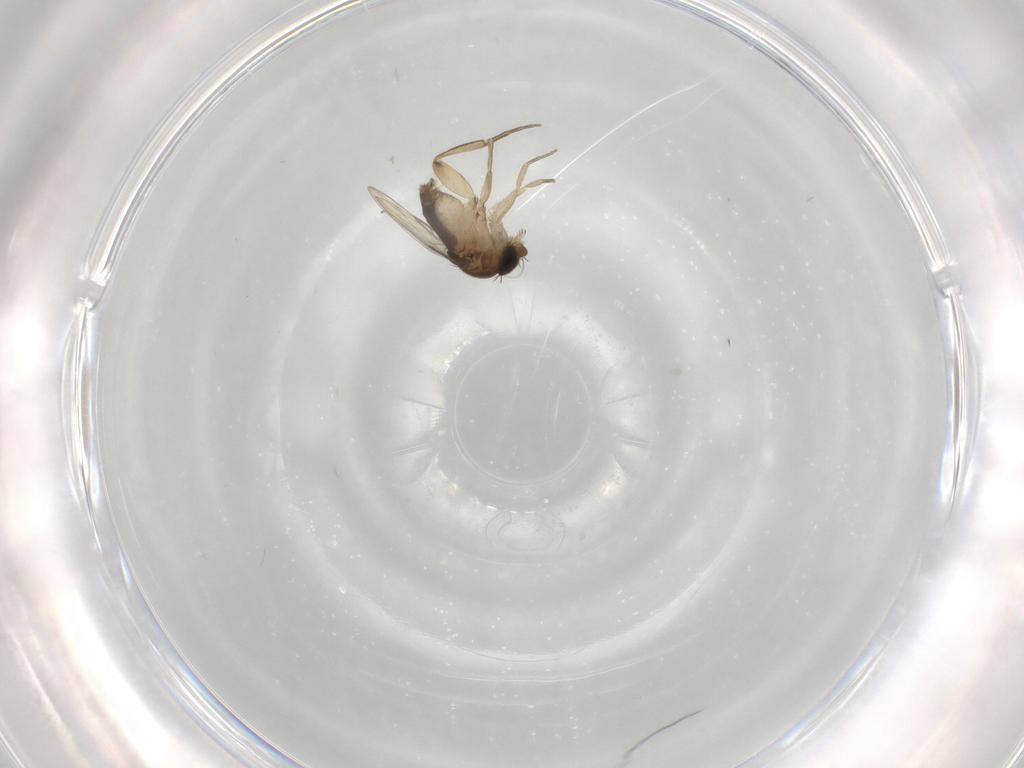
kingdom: Animalia
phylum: Arthropoda
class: Insecta
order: Diptera
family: Phoridae
